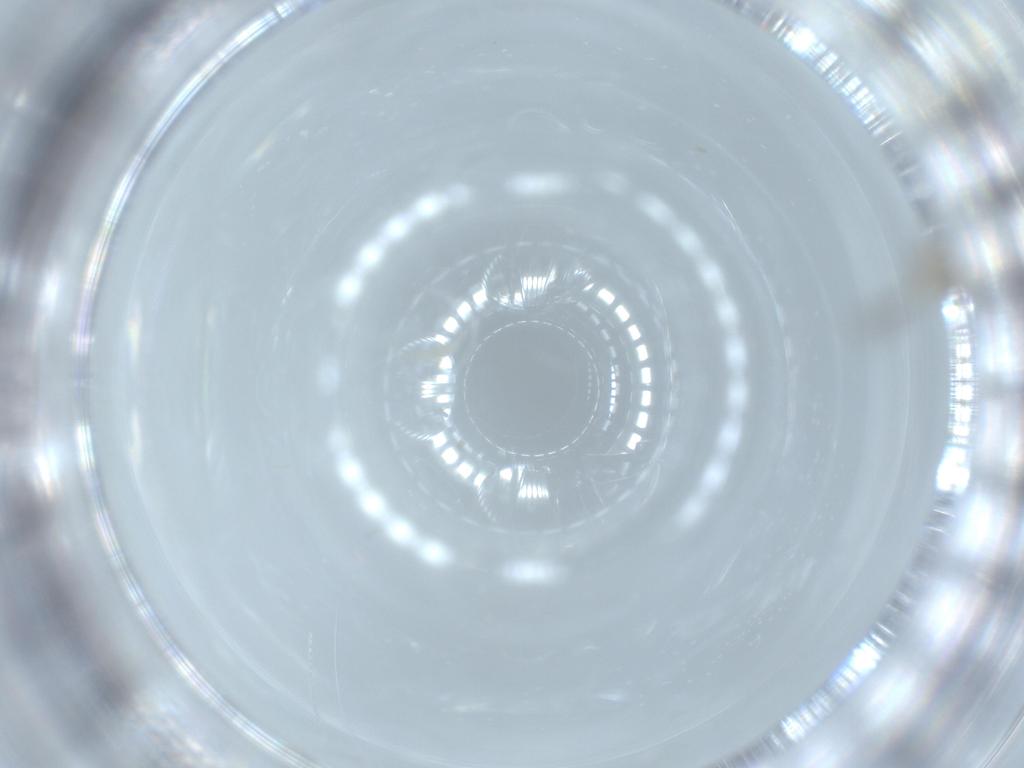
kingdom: Animalia
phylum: Arthropoda
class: Insecta
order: Diptera
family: Cecidomyiidae
